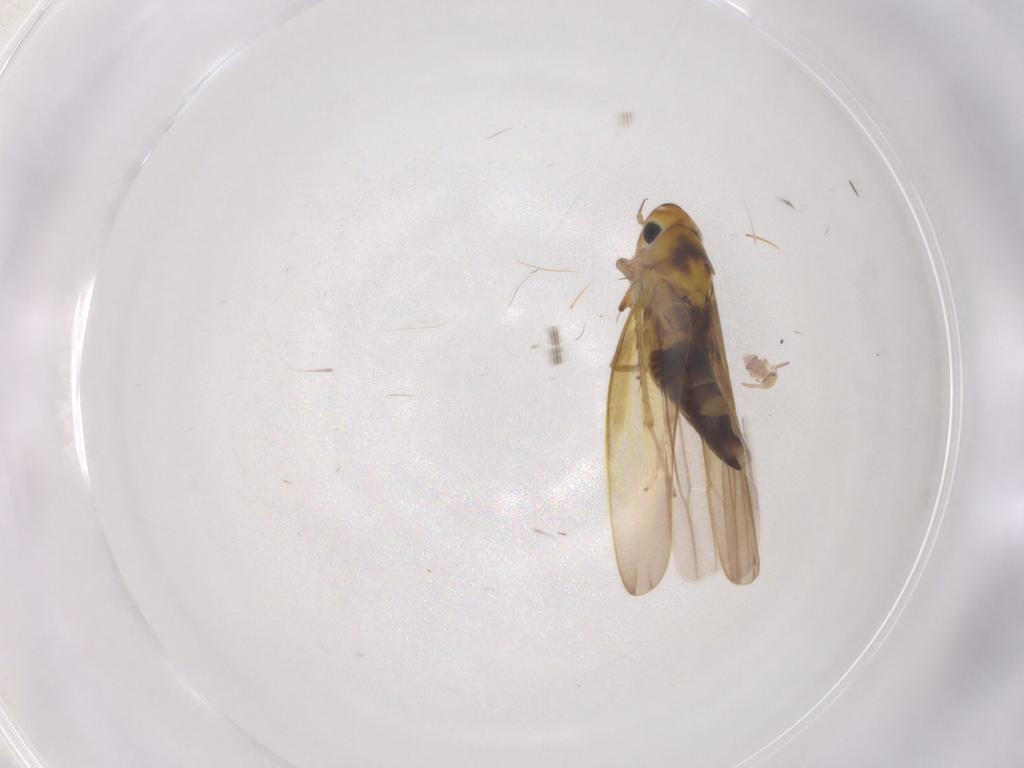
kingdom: Animalia
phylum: Arthropoda
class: Insecta
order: Hemiptera
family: Cicadellidae
